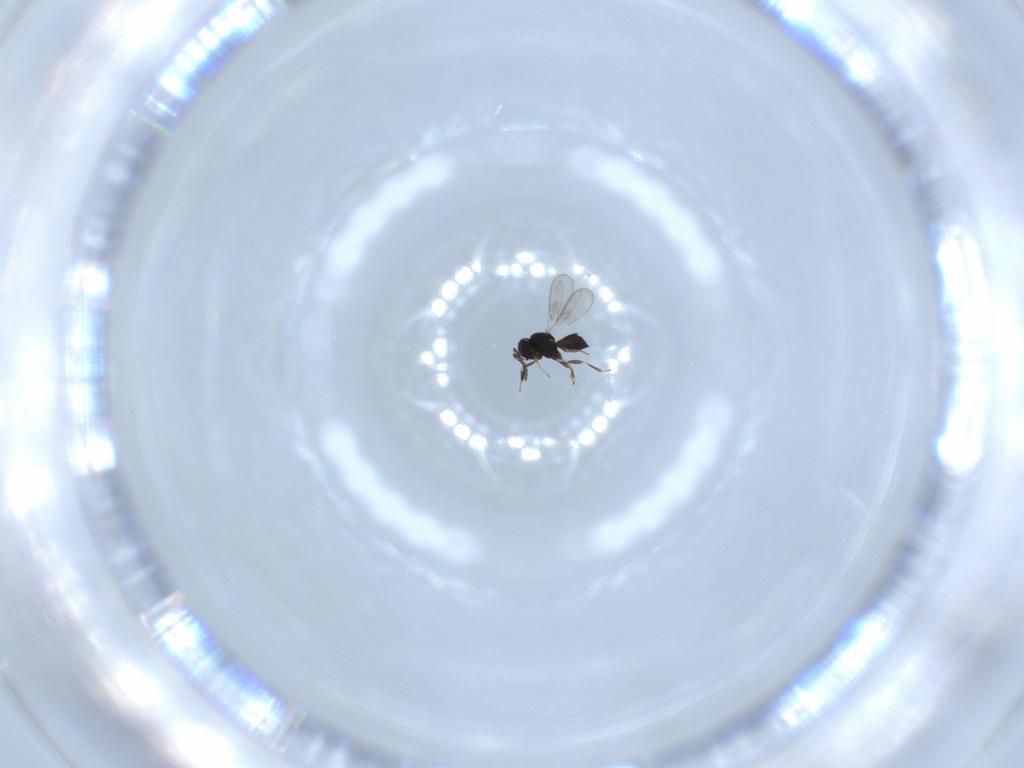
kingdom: Animalia
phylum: Arthropoda
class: Insecta
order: Hymenoptera
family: Scelionidae
